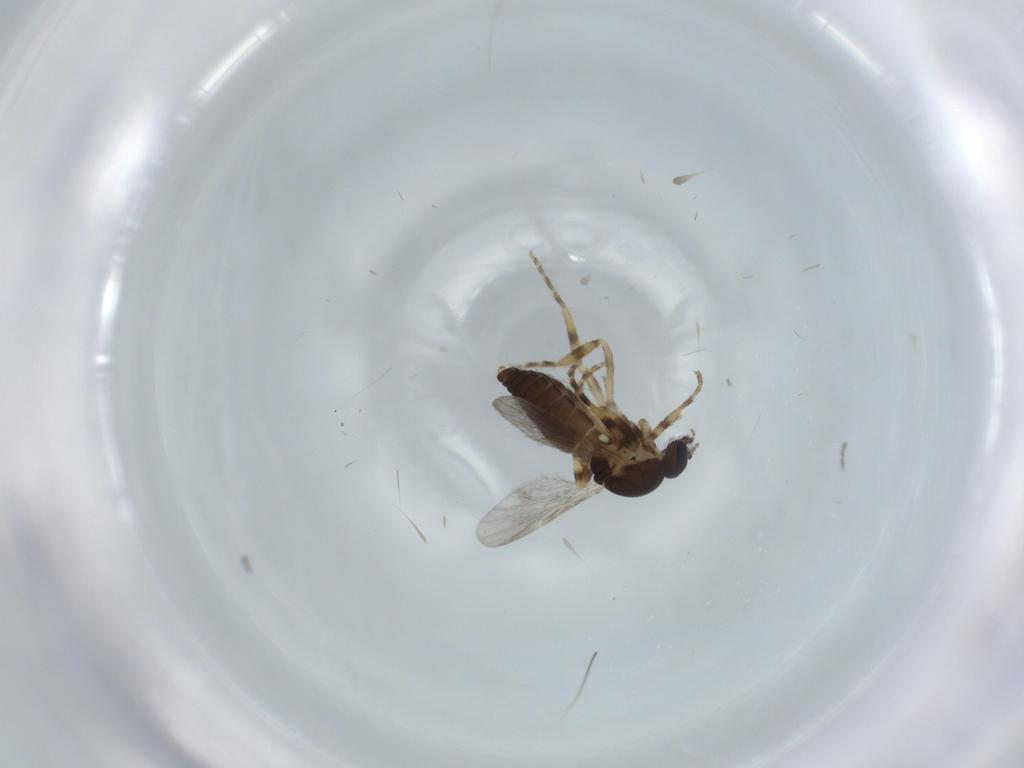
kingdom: Animalia
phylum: Arthropoda
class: Insecta
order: Diptera
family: Ceratopogonidae
